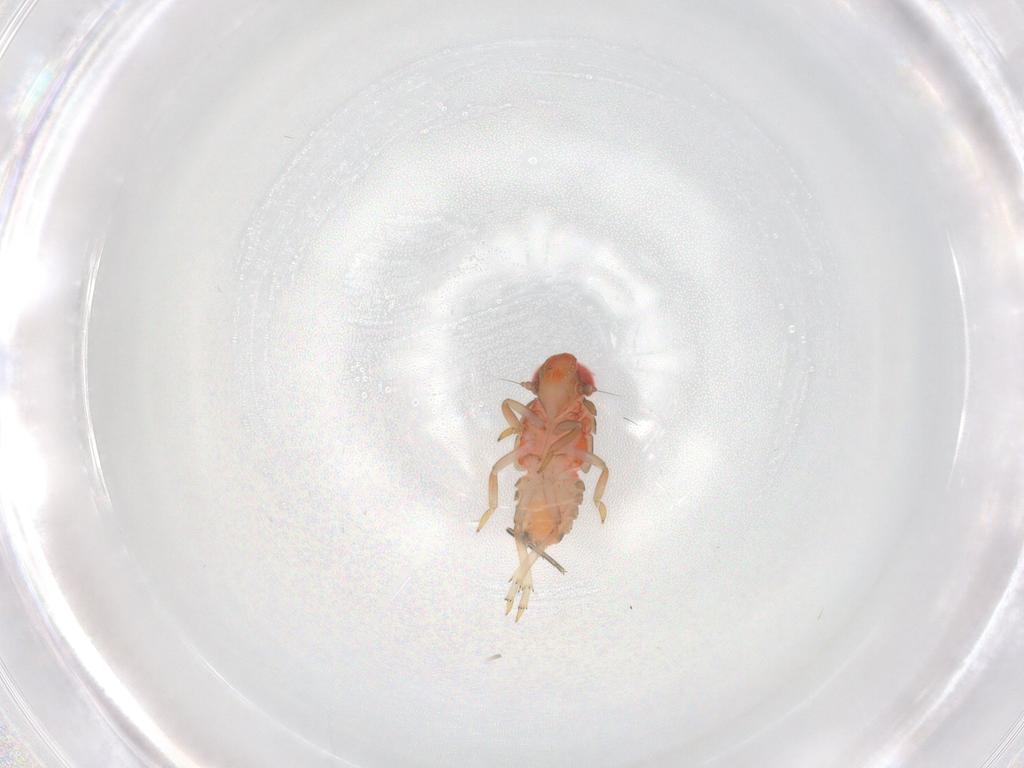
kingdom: Animalia
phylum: Arthropoda
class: Insecta
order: Hemiptera
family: Issidae
